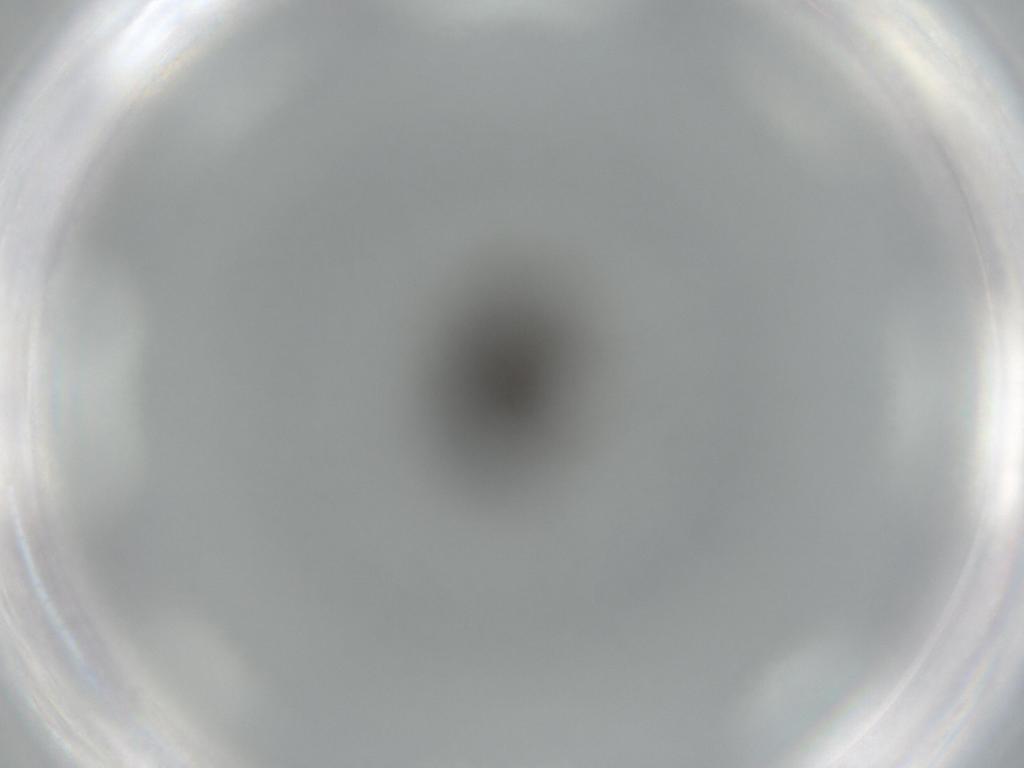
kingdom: Animalia
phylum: Arthropoda
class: Insecta
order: Diptera
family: Phoridae
